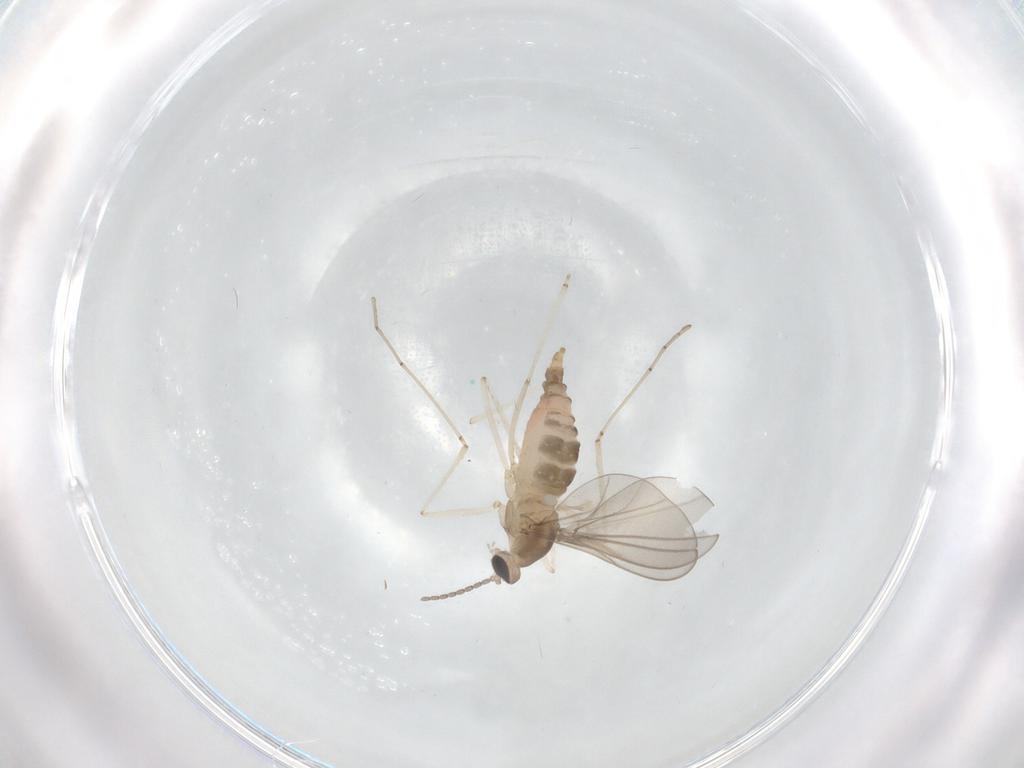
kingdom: Animalia
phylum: Arthropoda
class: Insecta
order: Diptera
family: Cecidomyiidae
